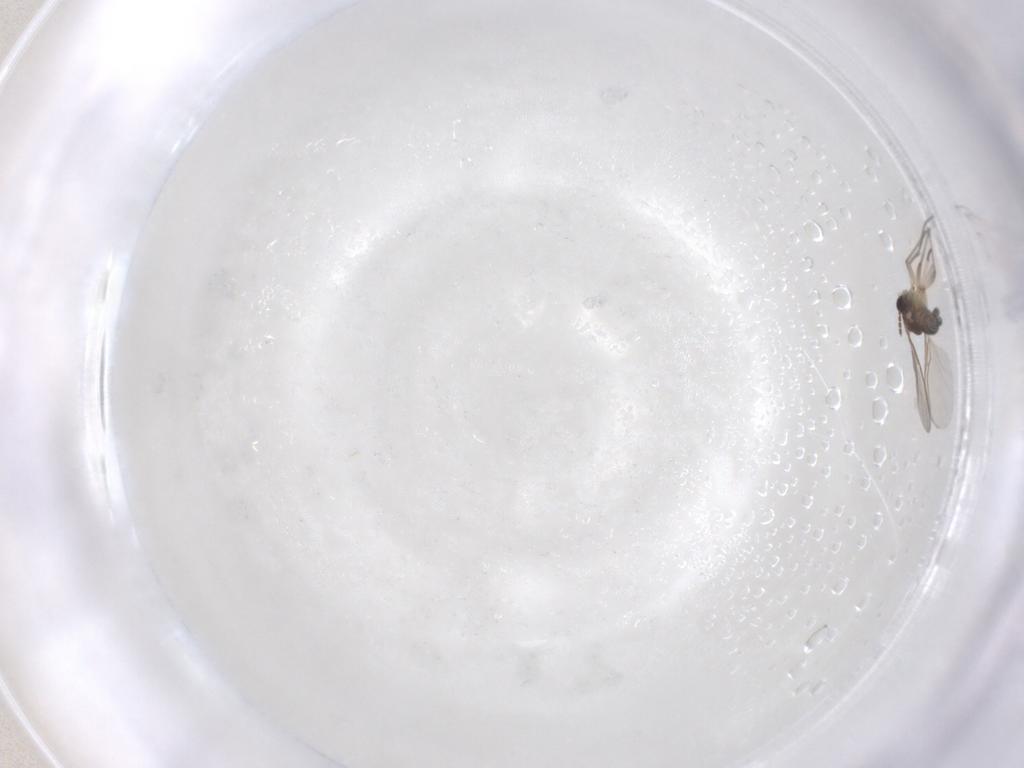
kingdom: Animalia
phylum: Arthropoda
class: Insecta
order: Diptera
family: Sciaridae
